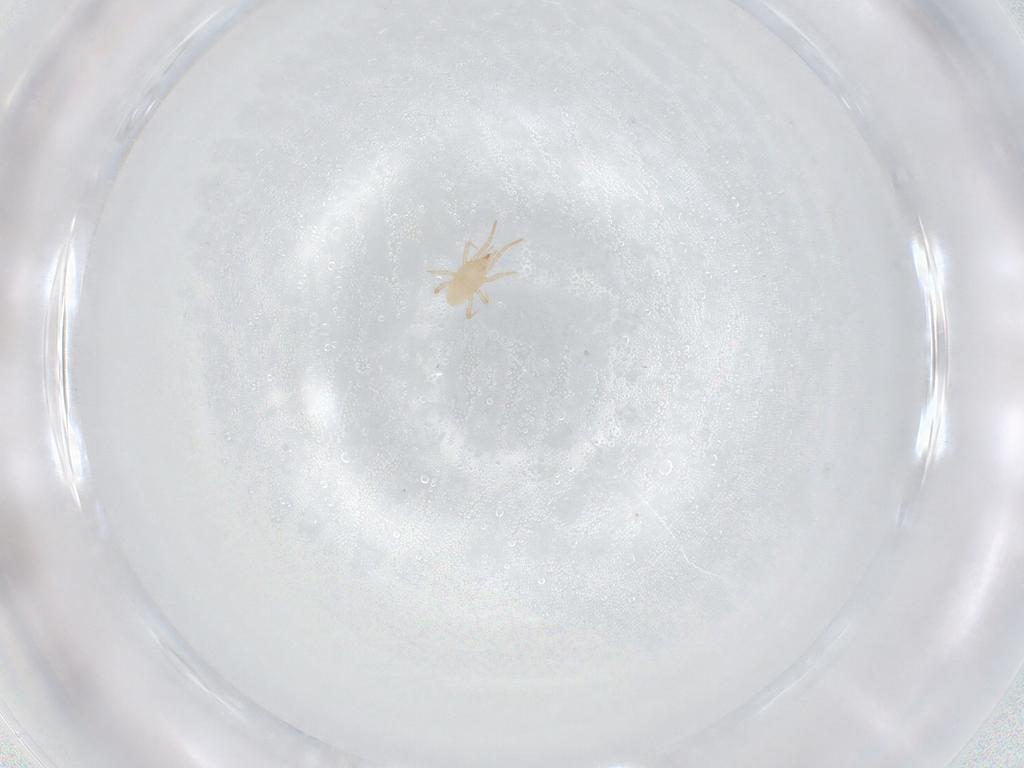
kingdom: Animalia
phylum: Arthropoda
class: Arachnida
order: Mesostigmata
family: Blattisociidae
